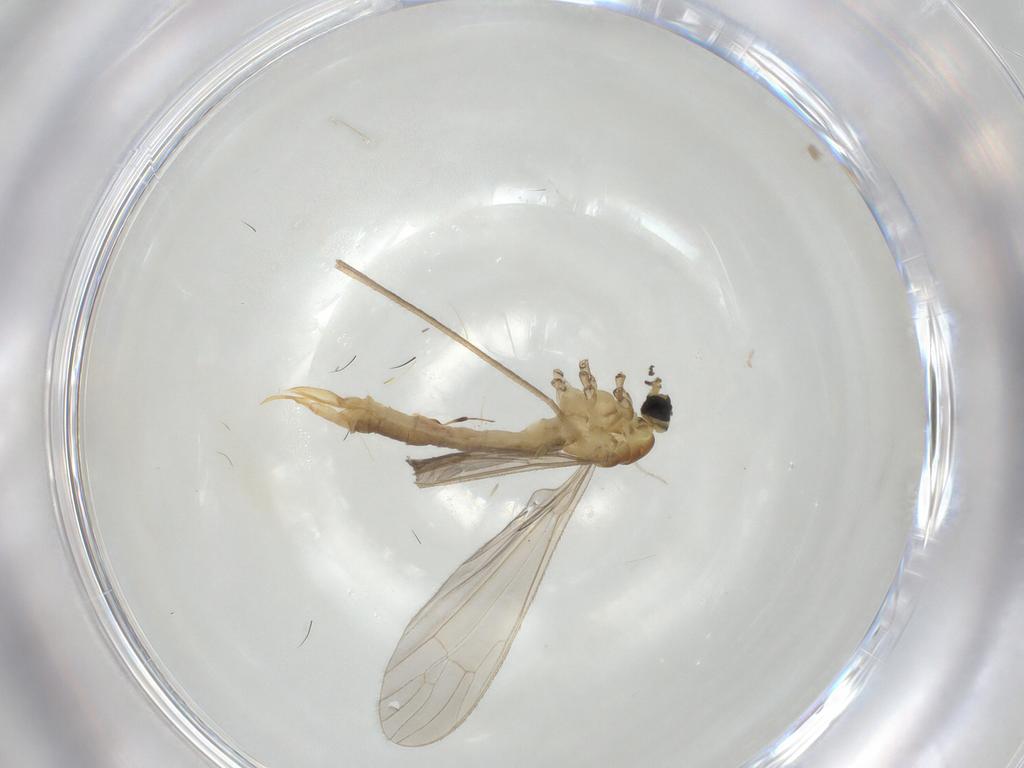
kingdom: Animalia
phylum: Arthropoda
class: Insecta
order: Diptera
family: Limoniidae
